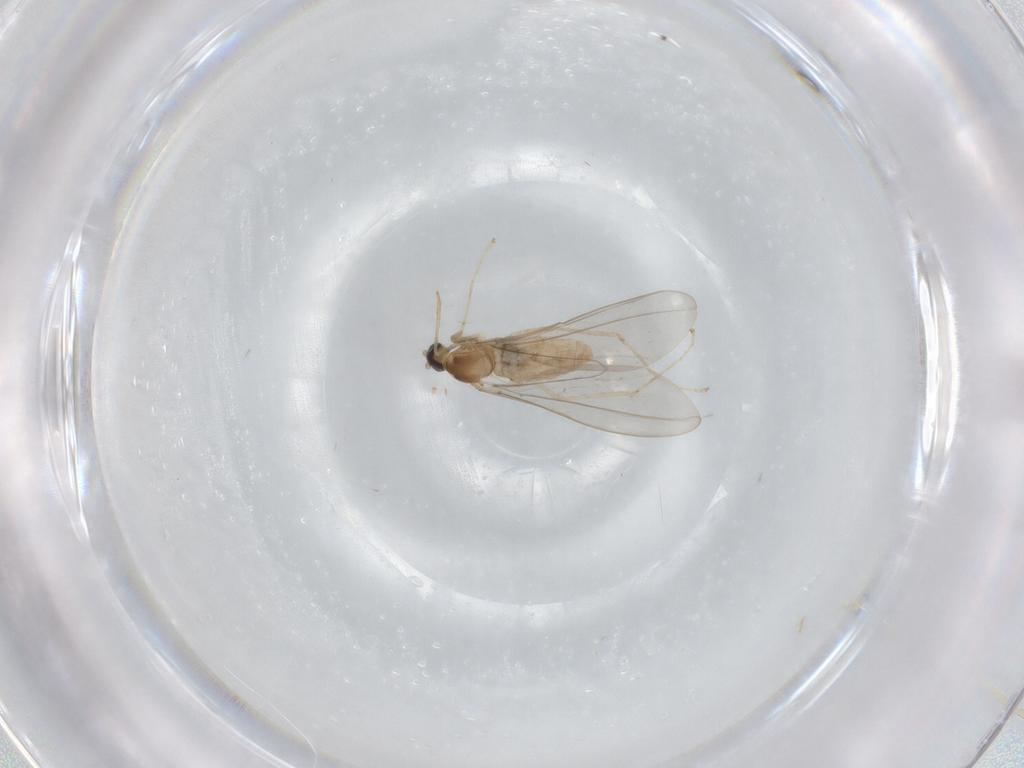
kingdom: Animalia
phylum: Arthropoda
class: Insecta
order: Diptera
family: Cecidomyiidae
